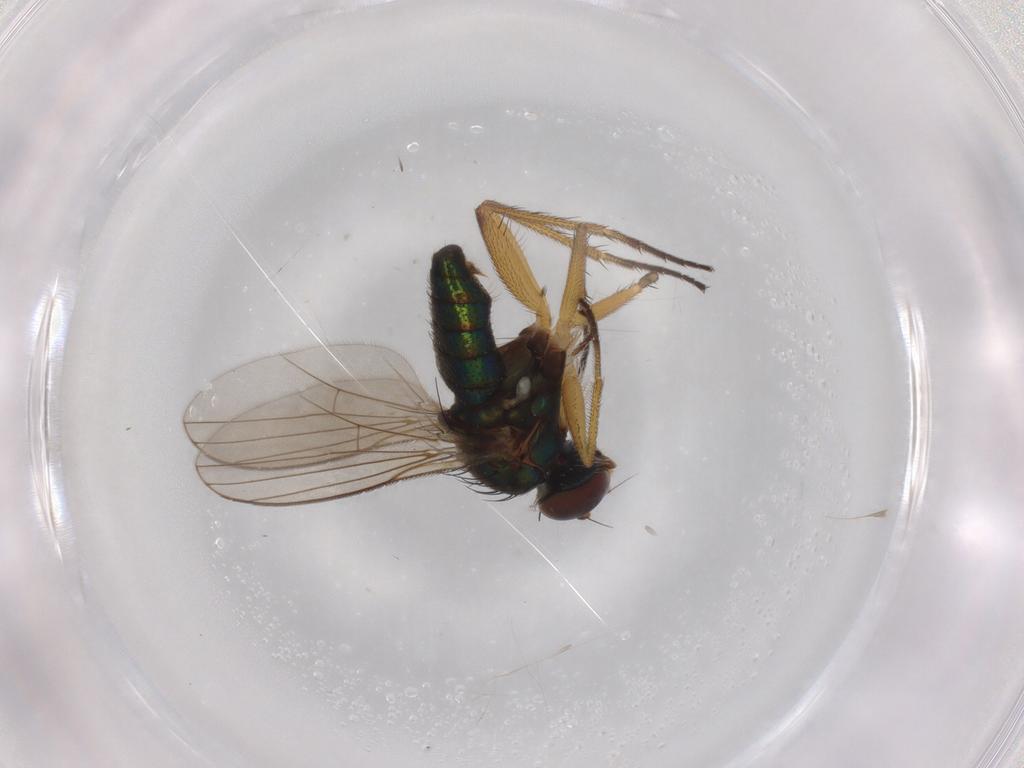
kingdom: Animalia
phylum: Arthropoda
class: Insecta
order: Diptera
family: Dolichopodidae
